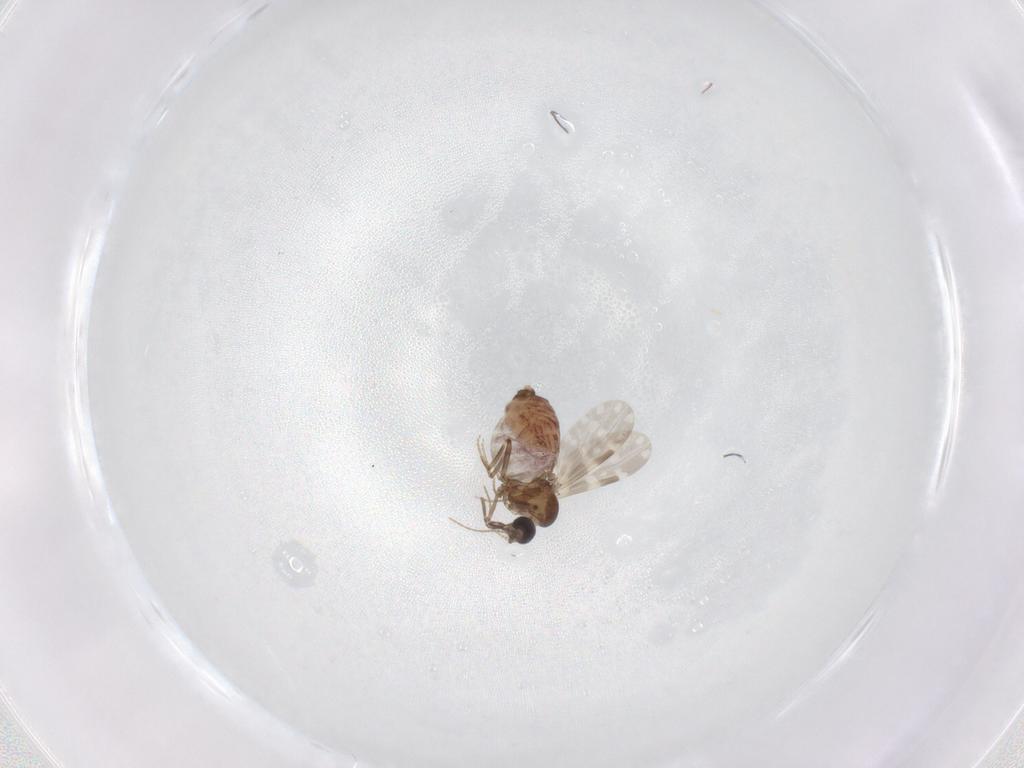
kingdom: Animalia
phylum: Arthropoda
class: Insecta
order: Diptera
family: Ceratopogonidae
